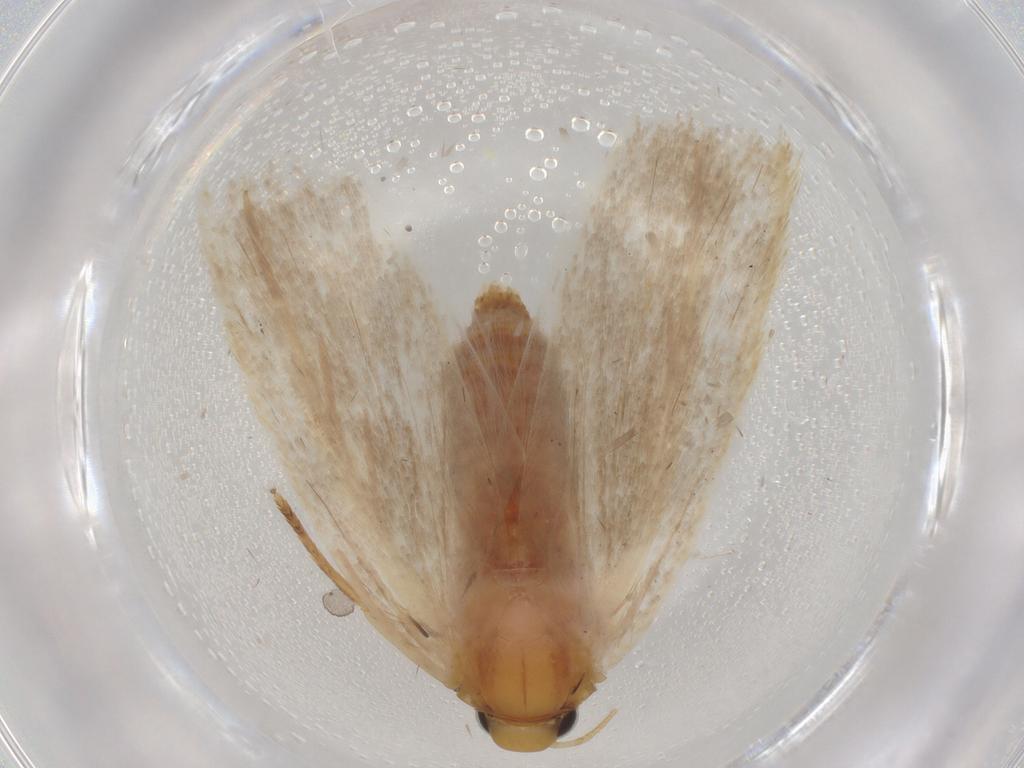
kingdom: Animalia
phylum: Arthropoda
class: Insecta
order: Lepidoptera
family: Autostichidae
